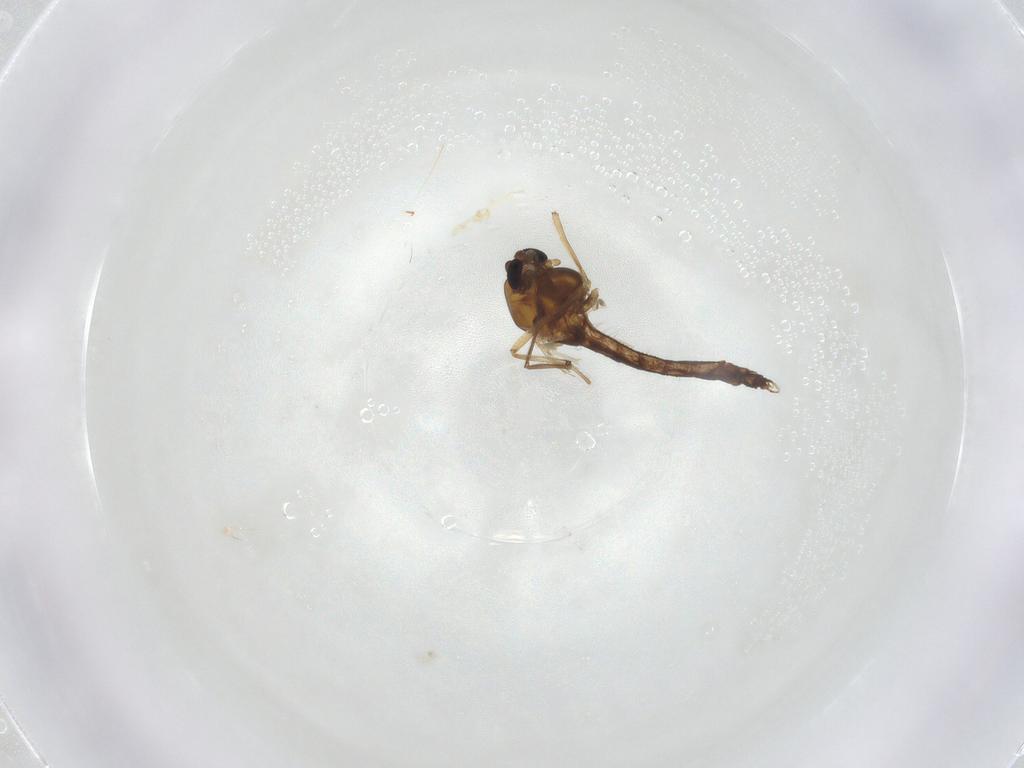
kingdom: Animalia
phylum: Arthropoda
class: Insecta
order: Diptera
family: Chironomidae
